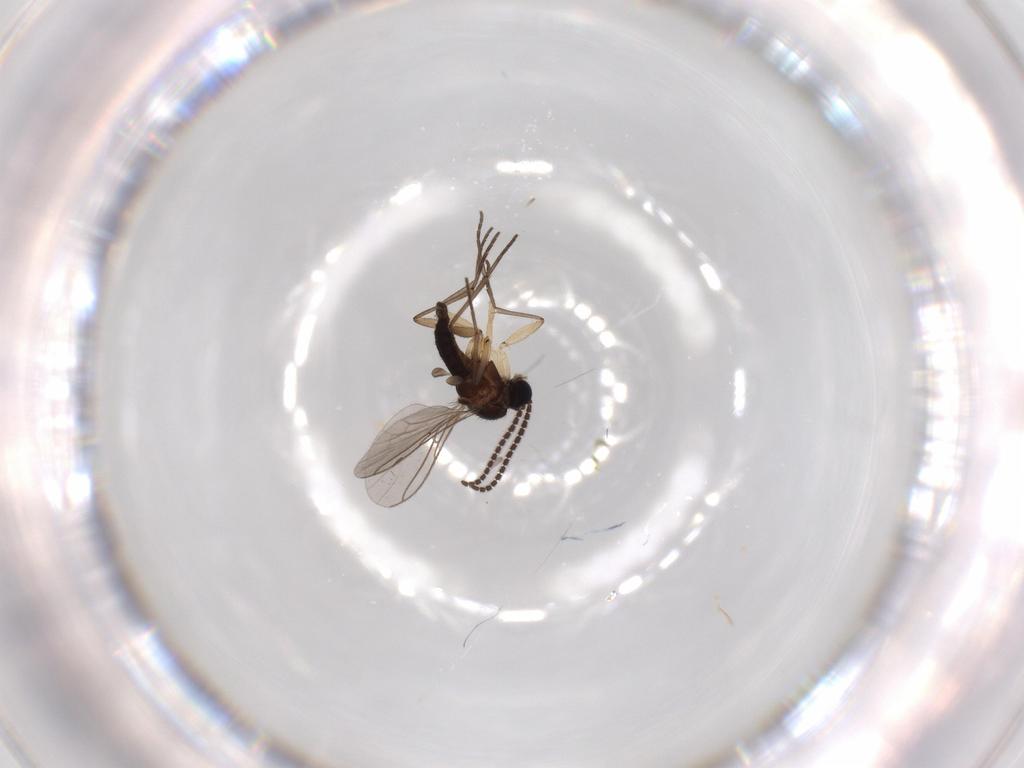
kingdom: Animalia
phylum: Arthropoda
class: Insecta
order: Diptera
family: Sciaridae
